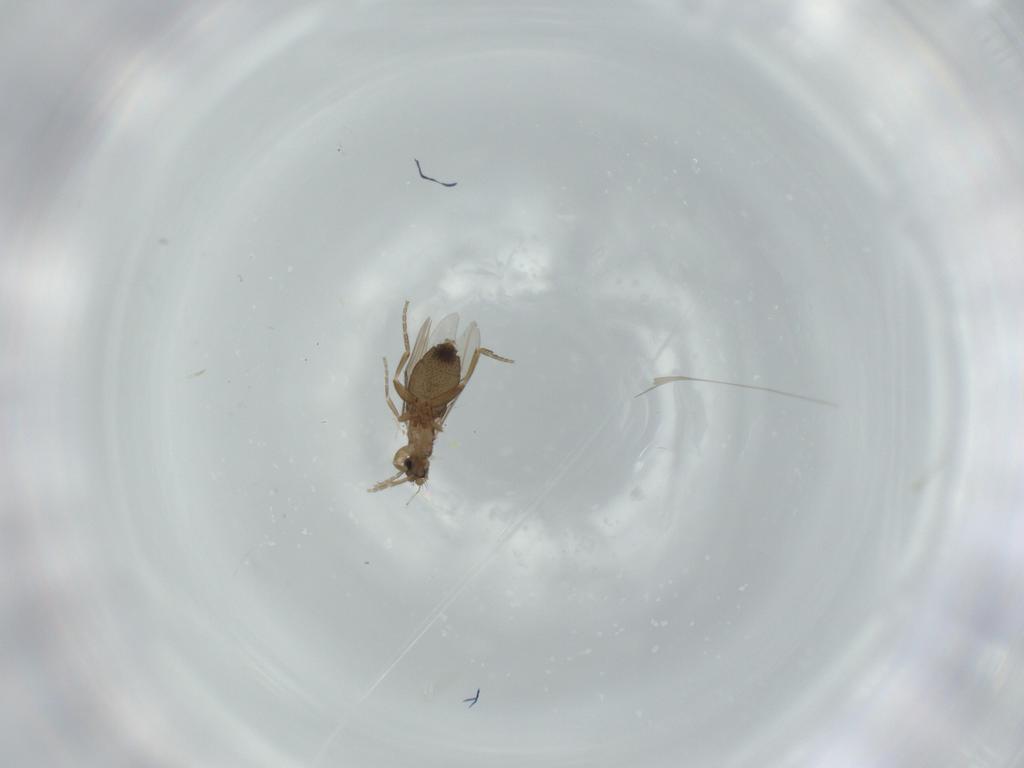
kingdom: Animalia
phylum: Arthropoda
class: Insecta
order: Diptera
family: Phoridae
